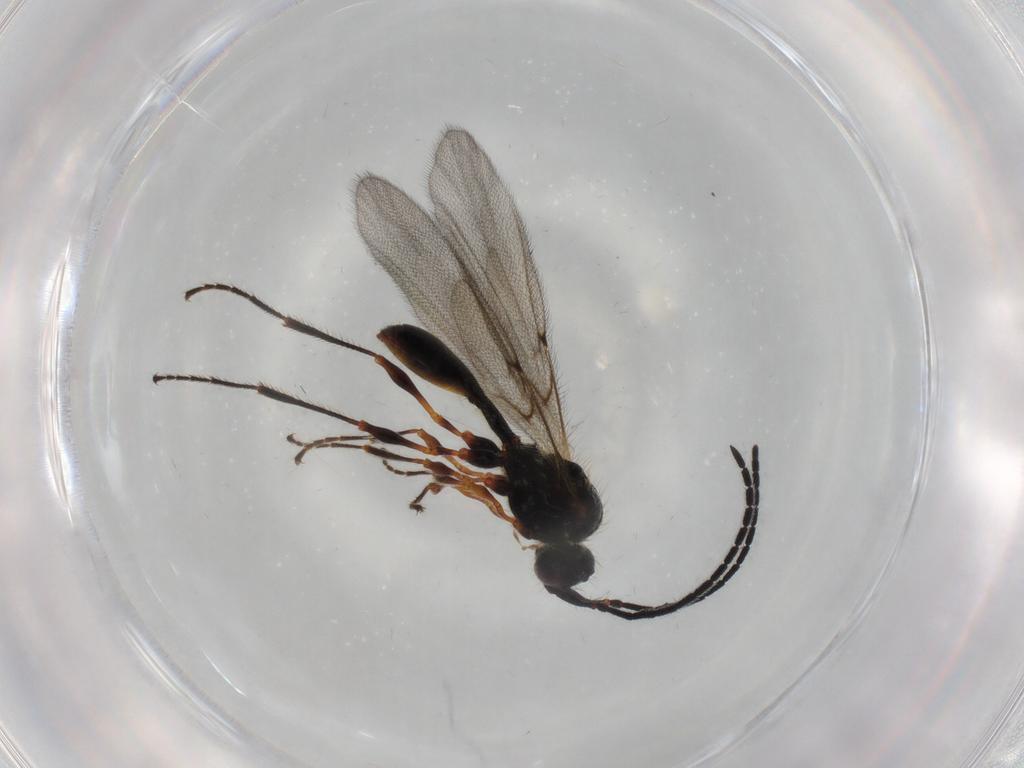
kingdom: Animalia
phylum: Arthropoda
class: Insecta
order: Hymenoptera
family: Diapriidae
